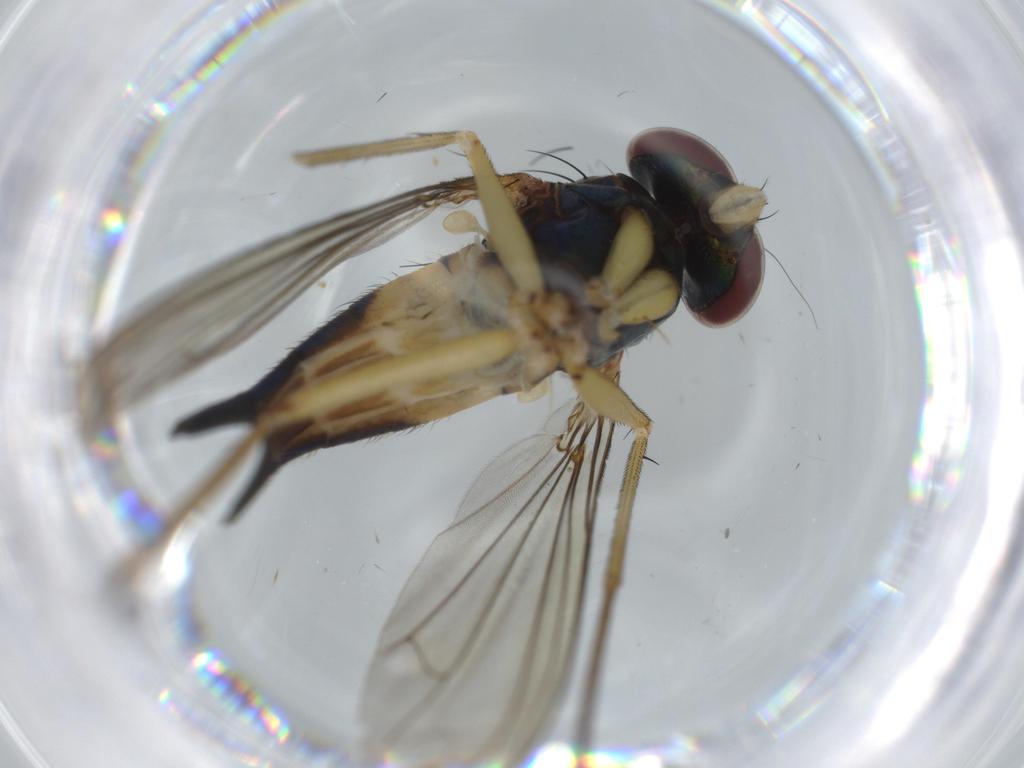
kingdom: Animalia
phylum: Arthropoda
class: Insecta
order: Diptera
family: Dolichopodidae
